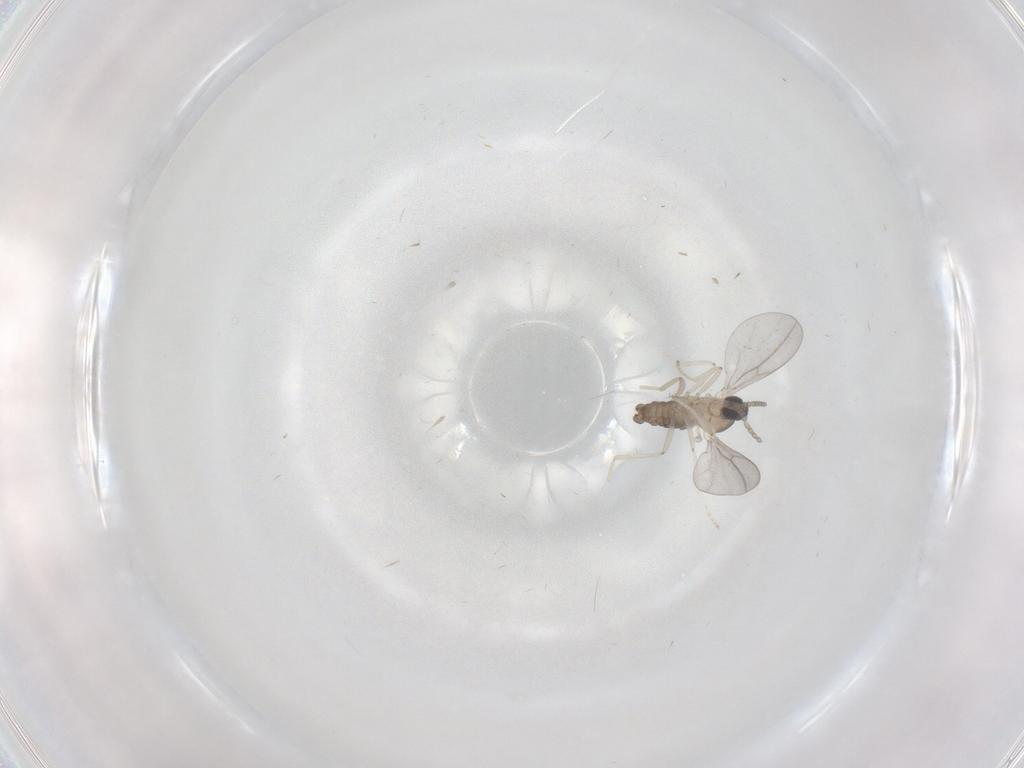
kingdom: Animalia
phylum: Arthropoda
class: Insecta
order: Diptera
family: Cecidomyiidae
